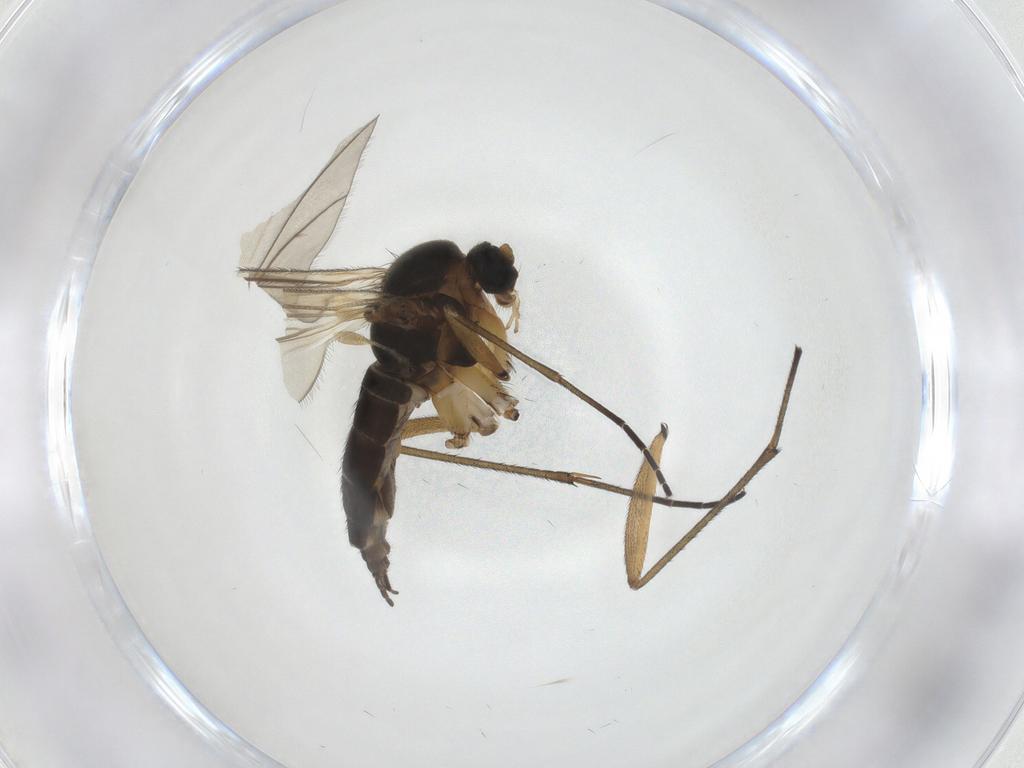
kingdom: Animalia
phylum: Arthropoda
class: Insecta
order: Diptera
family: Sciaridae
